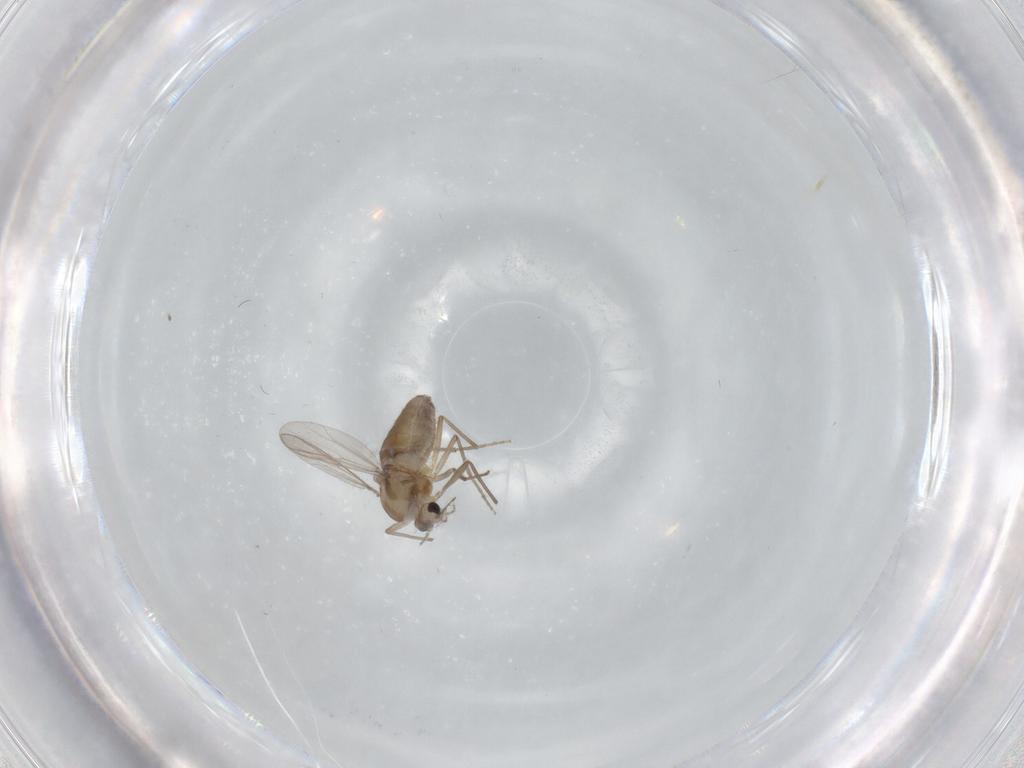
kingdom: Animalia
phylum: Arthropoda
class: Insecta
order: Diptera
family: Chironomidae
